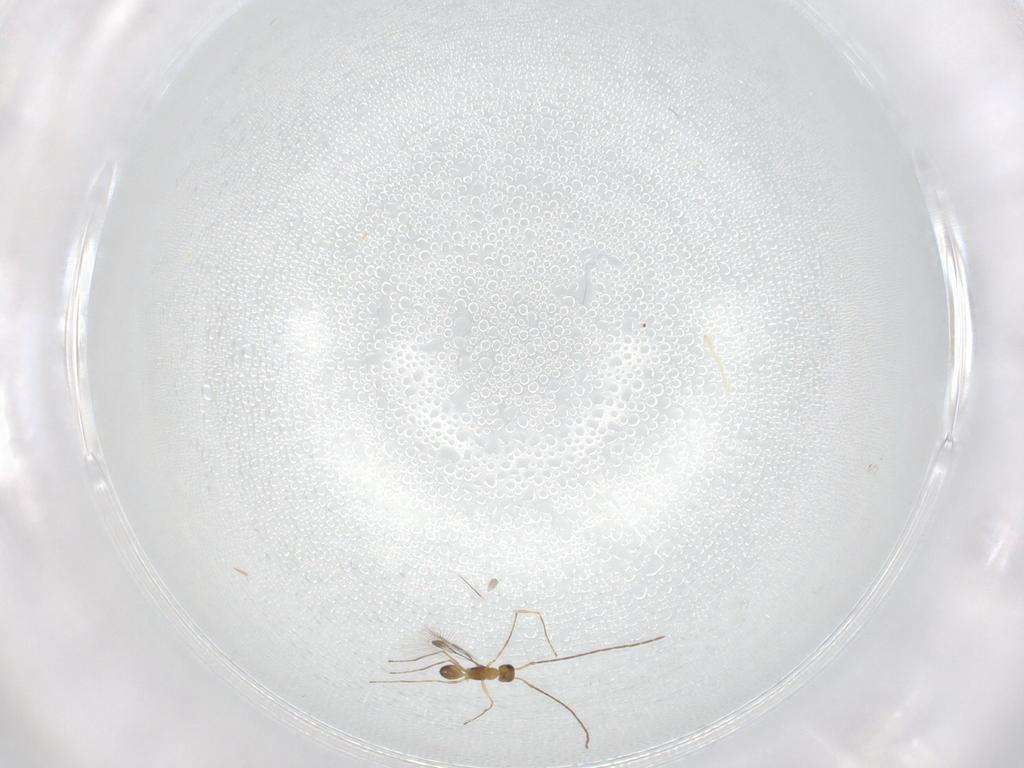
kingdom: Animalia
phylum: Arthropoda
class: Insecta
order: Hymenoptera
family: Mymaridae
